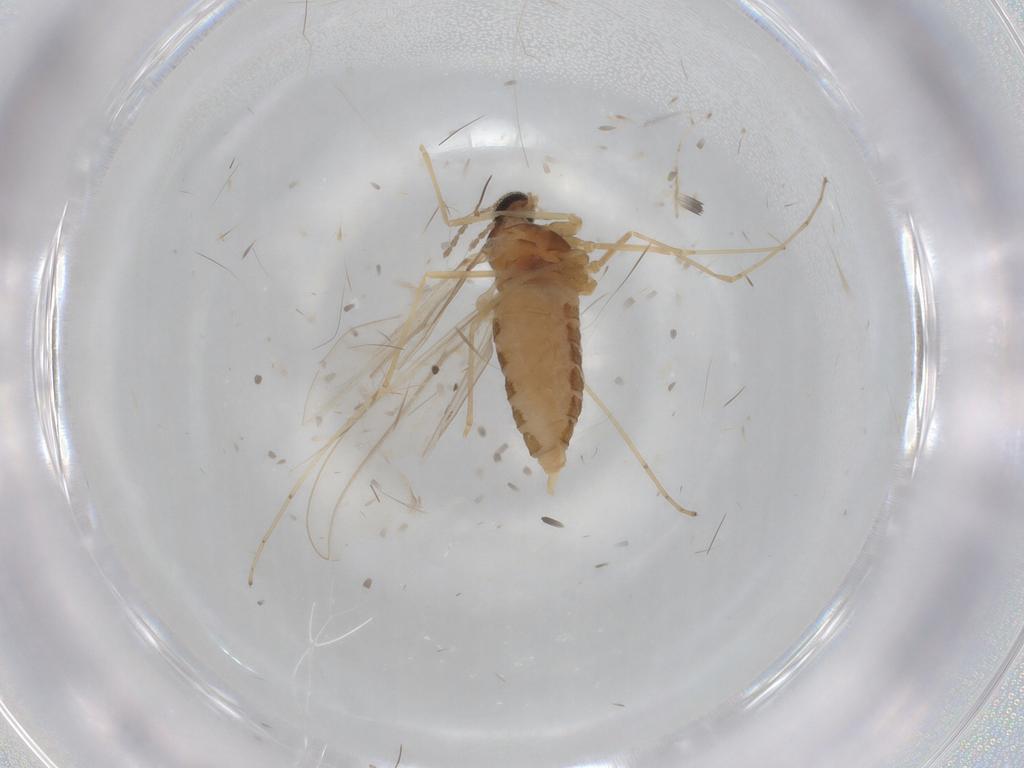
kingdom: Animalia
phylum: Arthropoda
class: Insecta
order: Diptera
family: Cecidomyiidae
